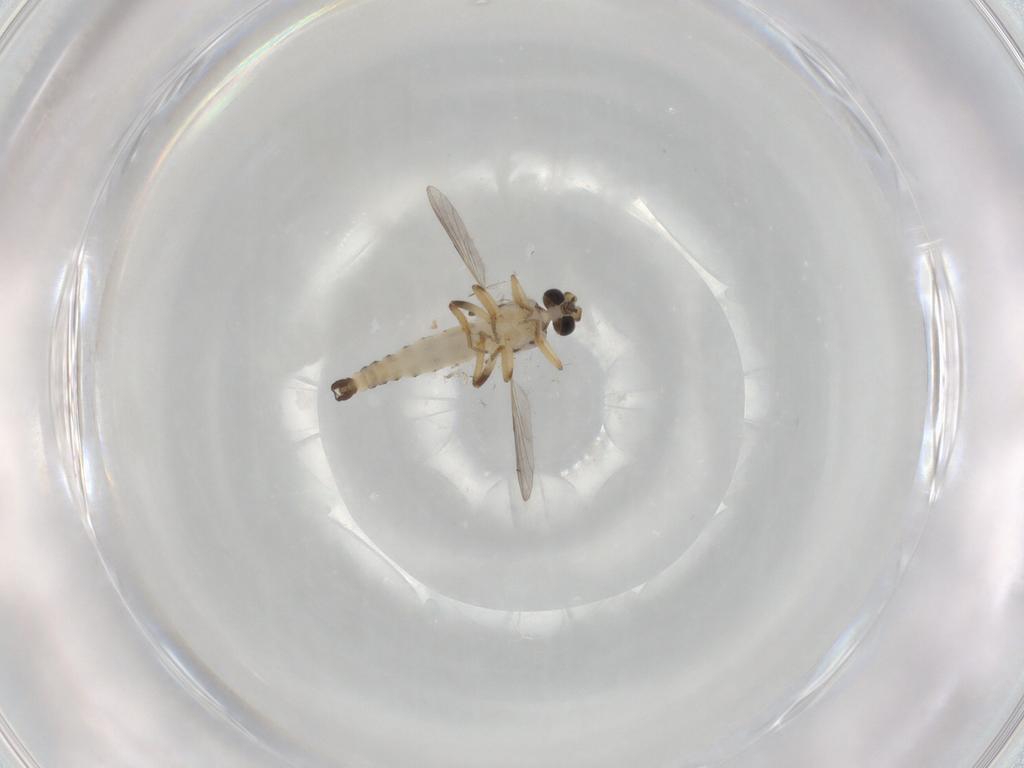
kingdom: Animalia
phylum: Arthropoda
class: Insecta
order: Diptera
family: Ceratopogonidae
